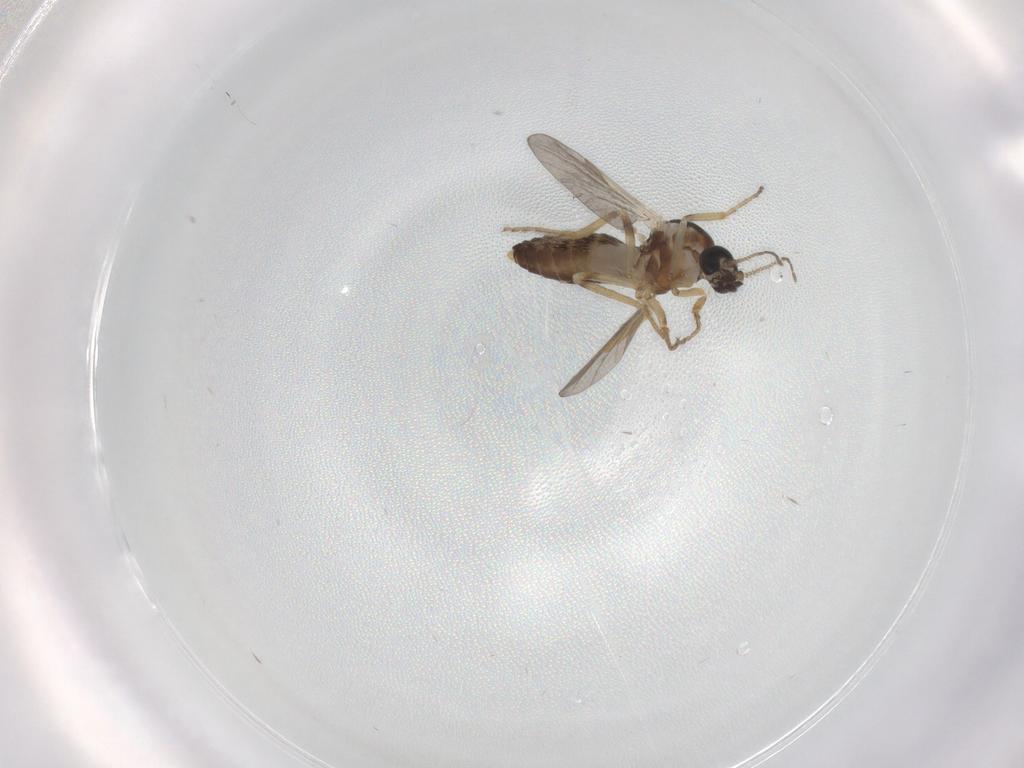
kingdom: Animalia
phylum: Arthropoda
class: Insecta
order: Diptera
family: Ceratopogonidae
